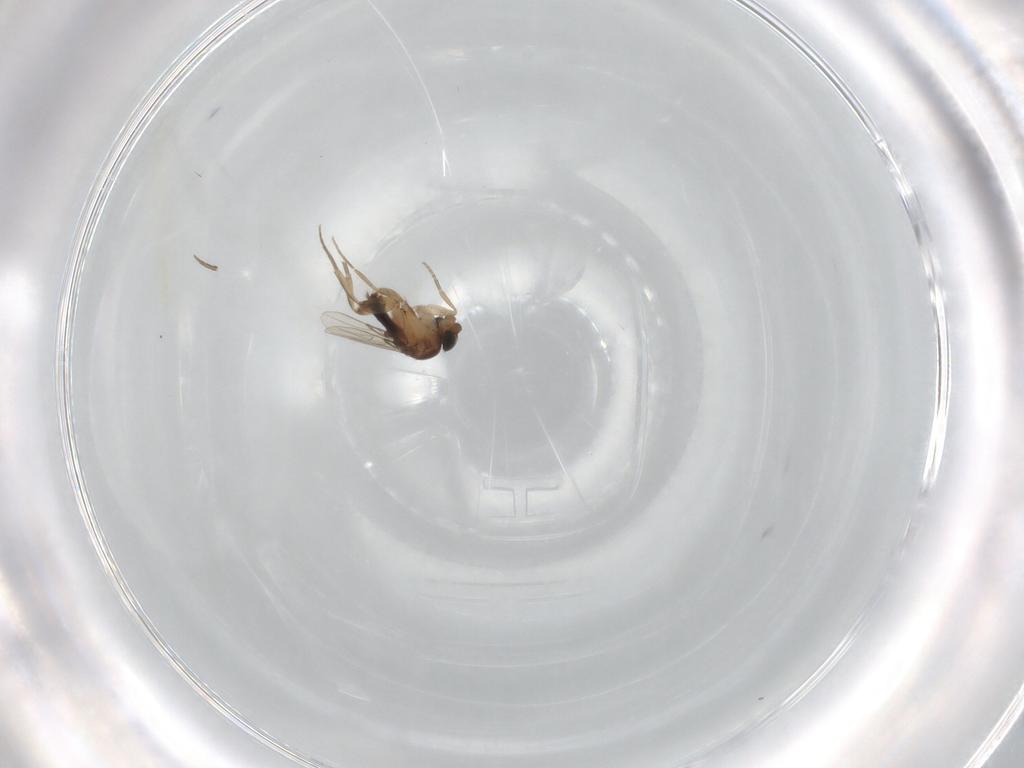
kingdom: Animalia
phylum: Arthropoda
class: Insecta
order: Diptera
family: Dolichopodidae
